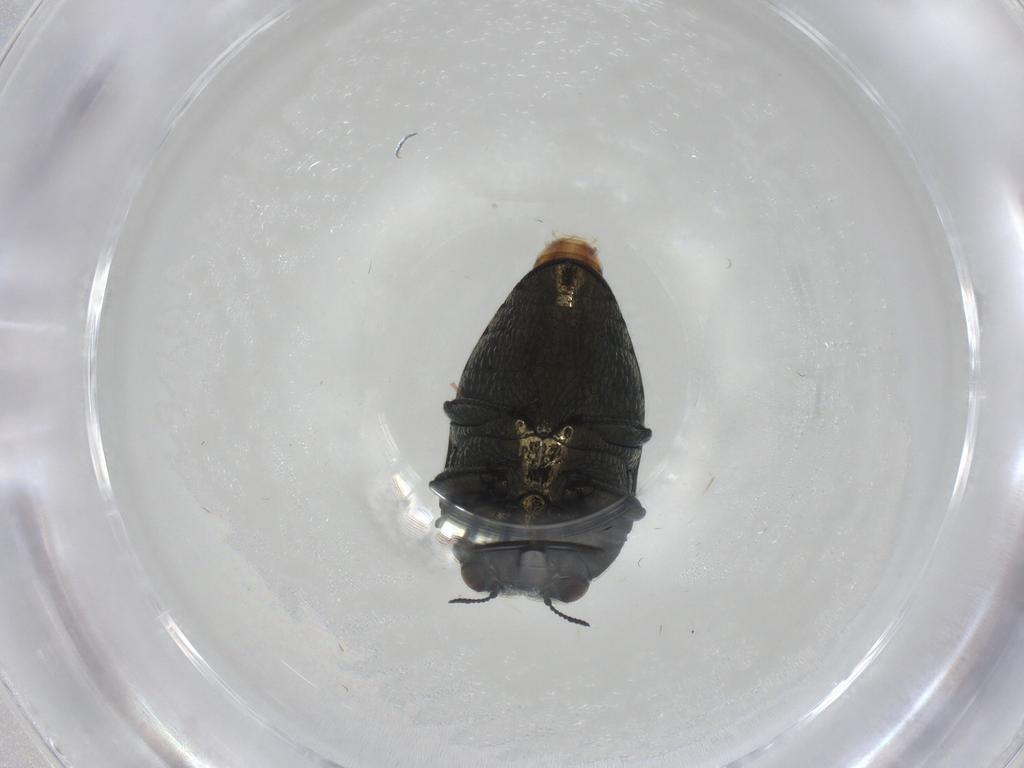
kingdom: Animalia
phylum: Arthropoda
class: Insecta
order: Coleoptera
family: Buprestidae
